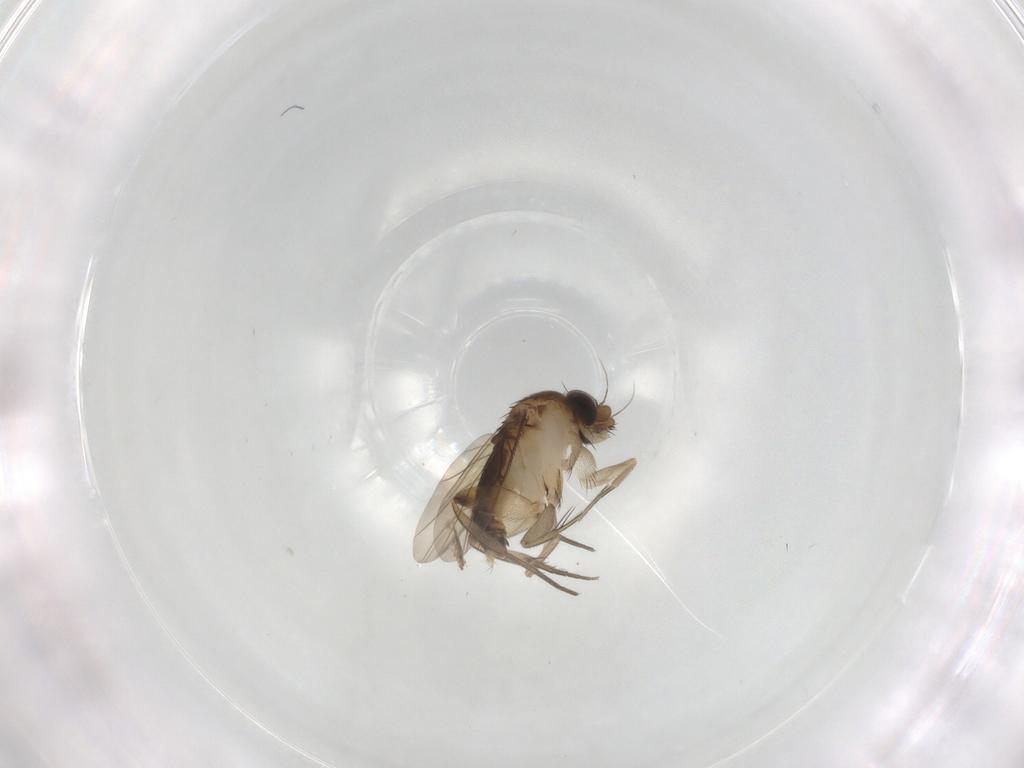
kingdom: Animalia
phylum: Arthropoda
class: Insecta
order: Diptera
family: Phoridae
